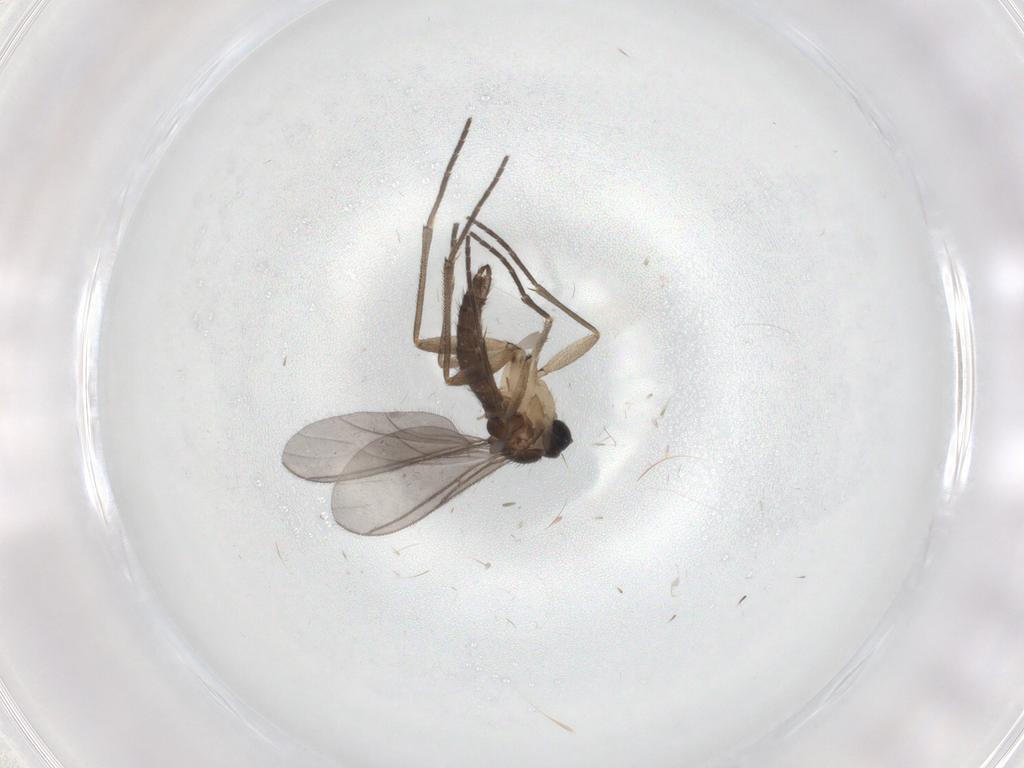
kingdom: Animalia
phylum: Arthropoda
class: Insecta
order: Diptera
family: Sciaridae
